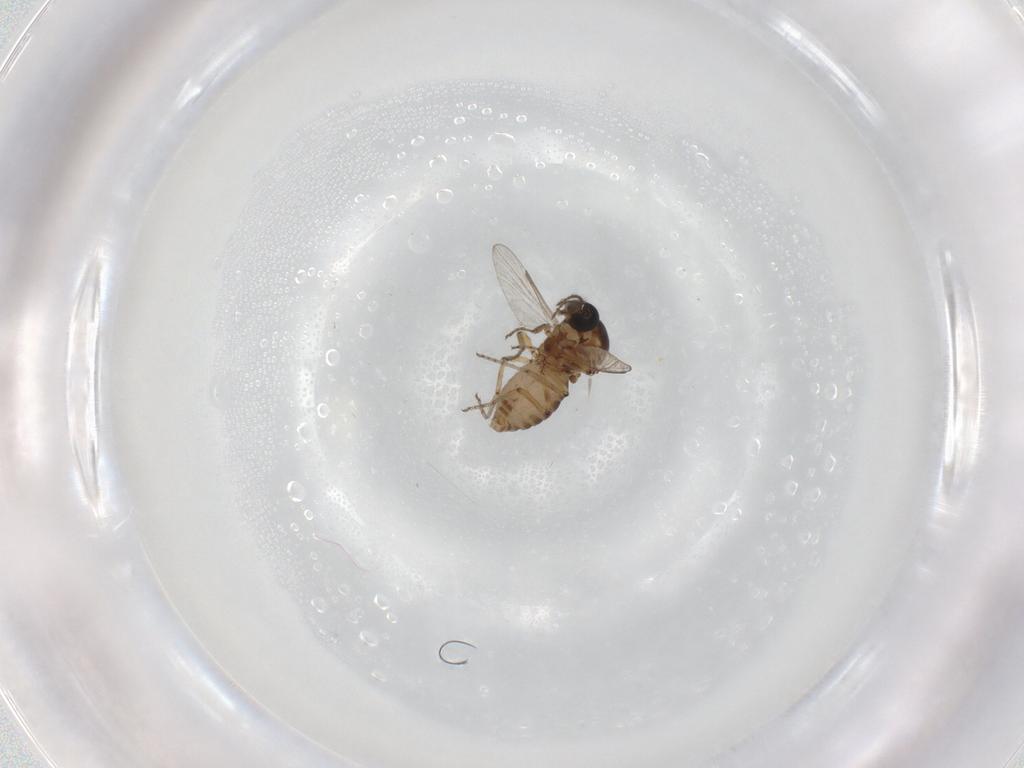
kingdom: Animalia
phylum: Arthropoda
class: Insecta
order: Diptera
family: Ceratopogonidae
